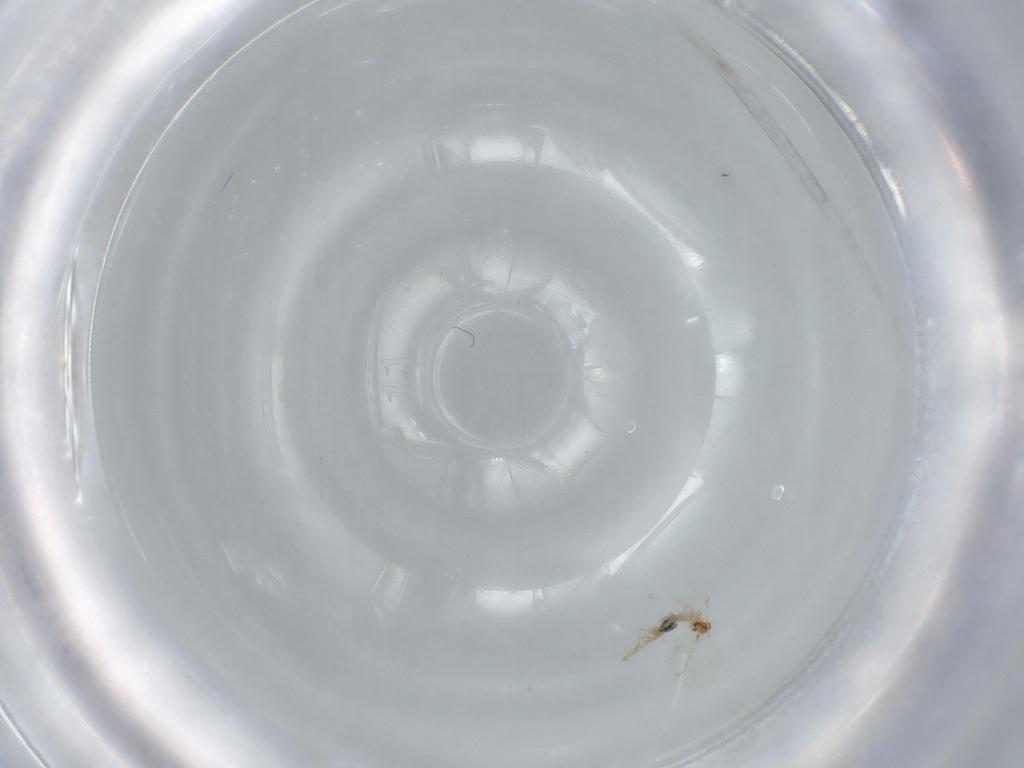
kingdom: Animalia
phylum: Arthropoda
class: Insecta
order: Diptera
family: Cecidomyiidae
